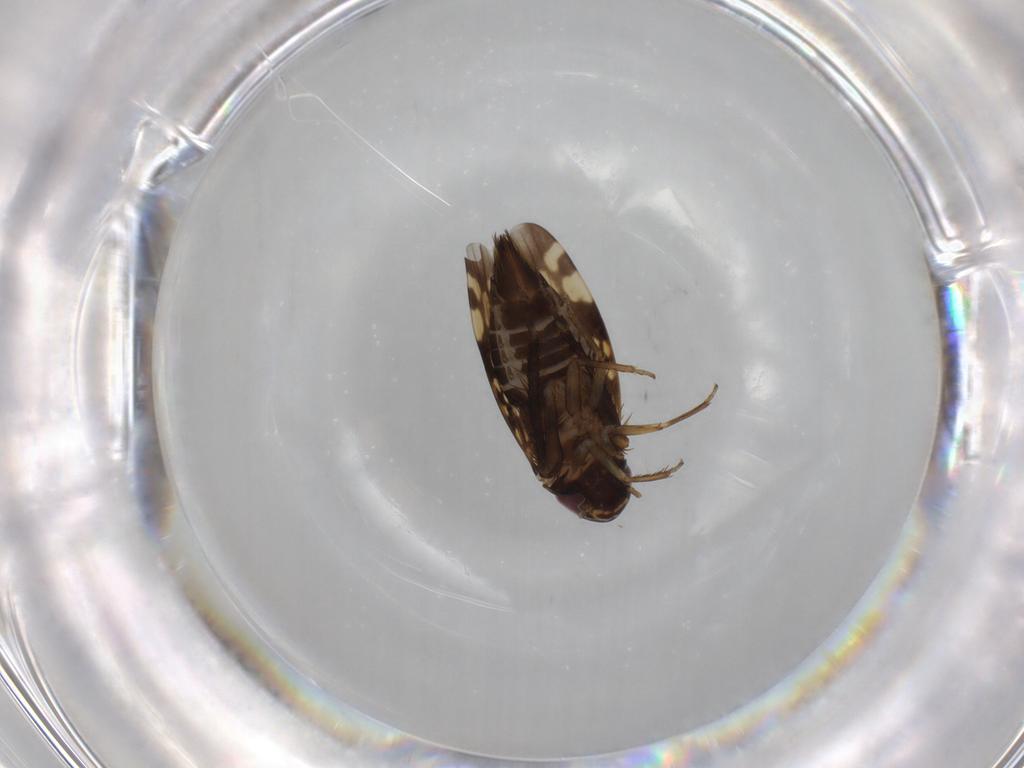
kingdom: Animalia
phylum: Arthropoda
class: Insecta
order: Hemiptera
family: Cicadellidae
